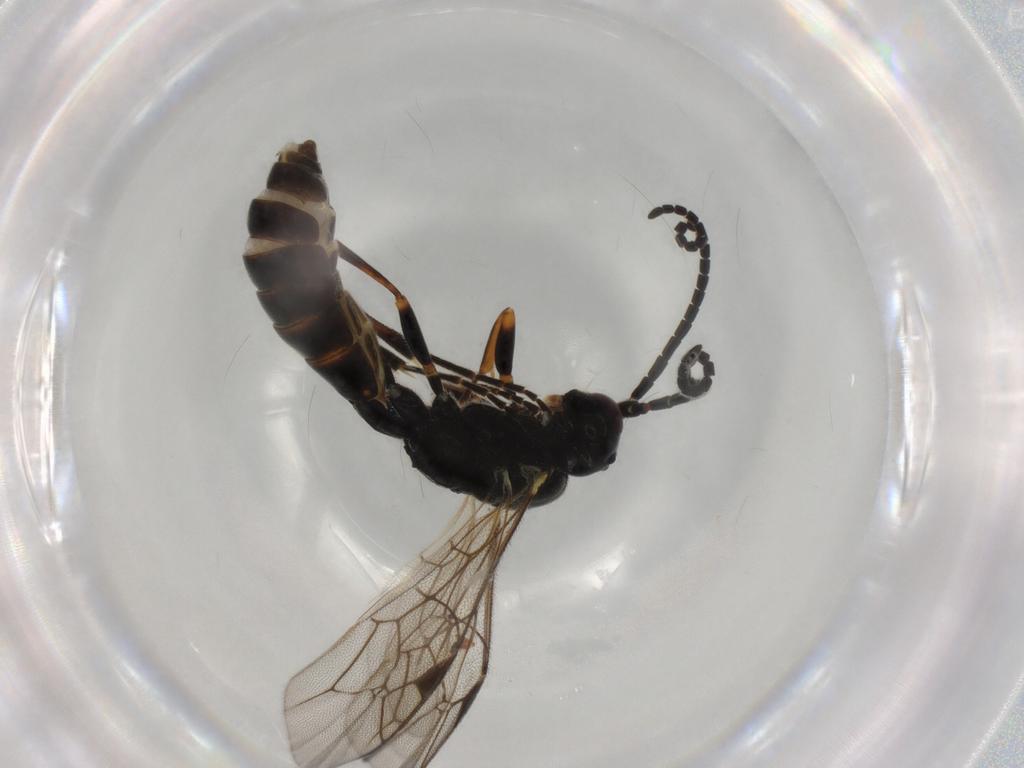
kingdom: Animalia
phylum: Arthropoda
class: Insecta
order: Hymenoptera
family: Ichneumonidae
